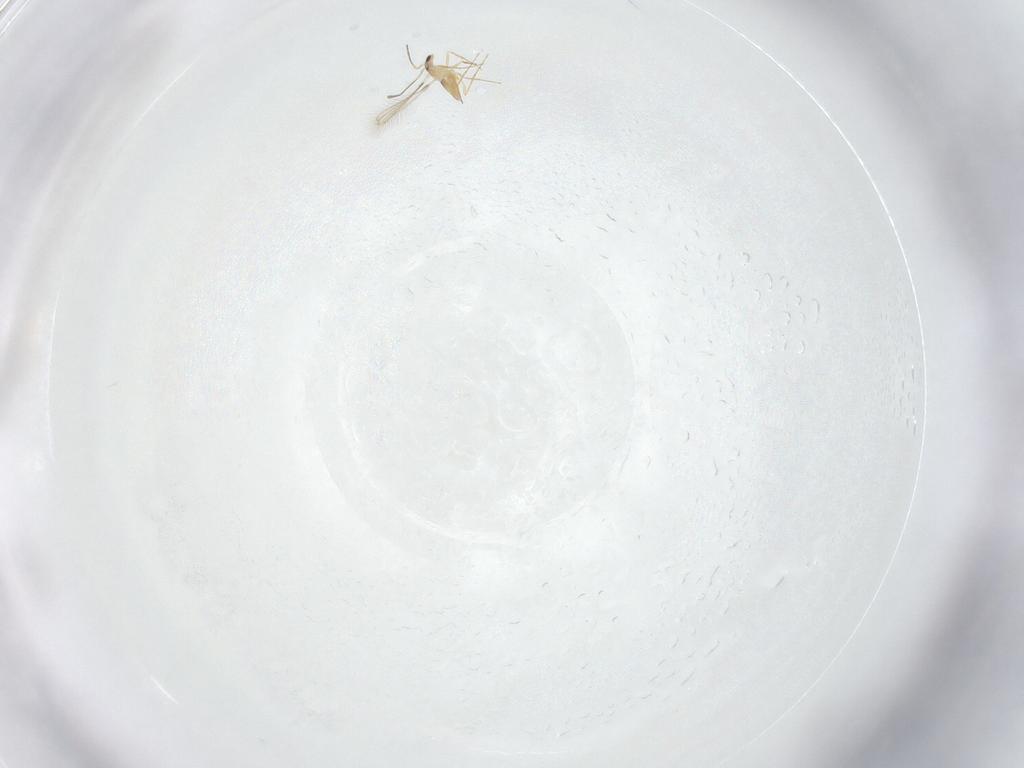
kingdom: Animalia
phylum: Arthropoda
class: Insecta
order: Hymenoptera
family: Mymaridae
